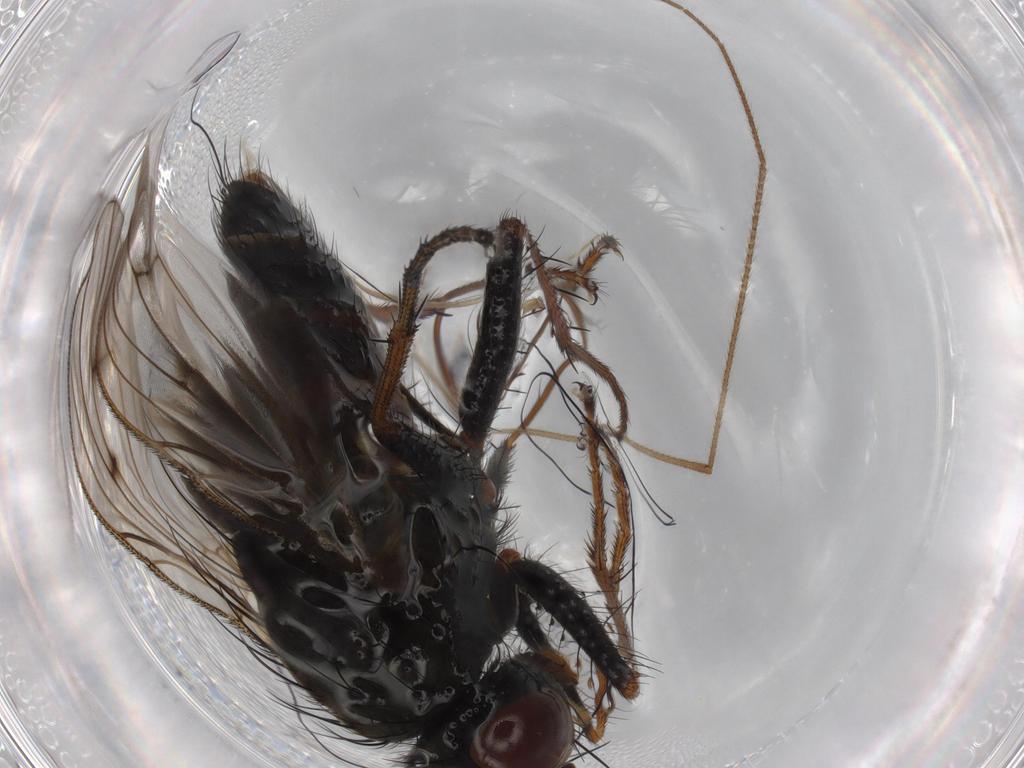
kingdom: Animalia
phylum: Arthropoda
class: Insecta
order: Diptera
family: Muscidae
